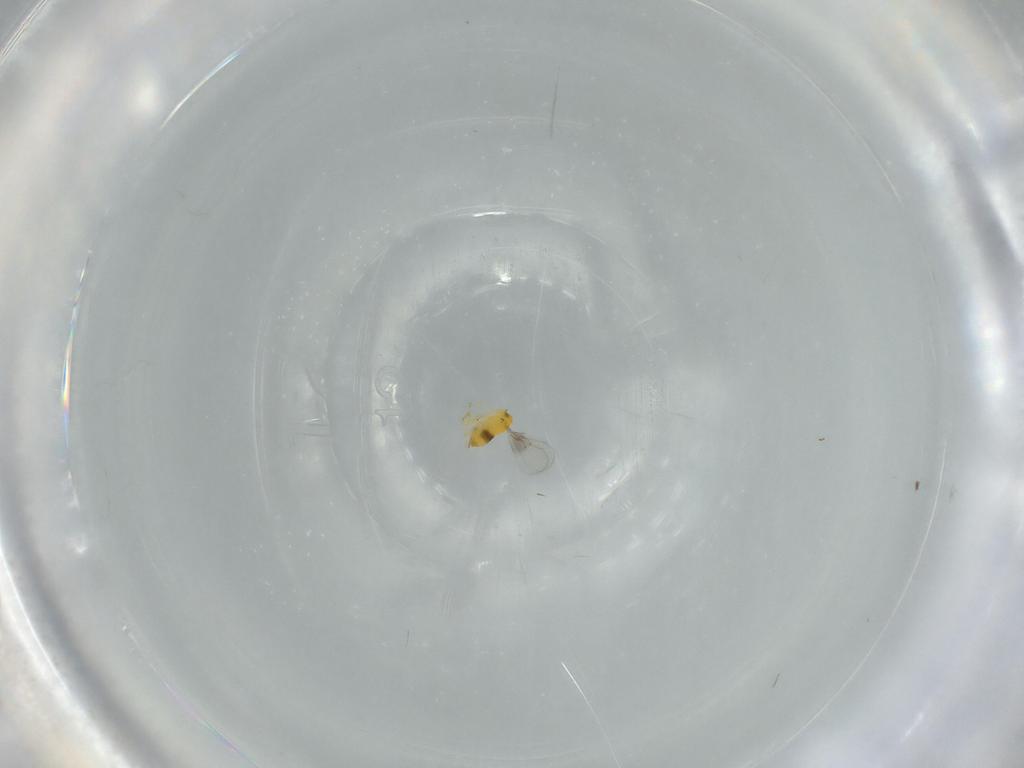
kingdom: Animalia
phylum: Arthropoda
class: Insecta
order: Hymenoptera
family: Trichogrammatidae
